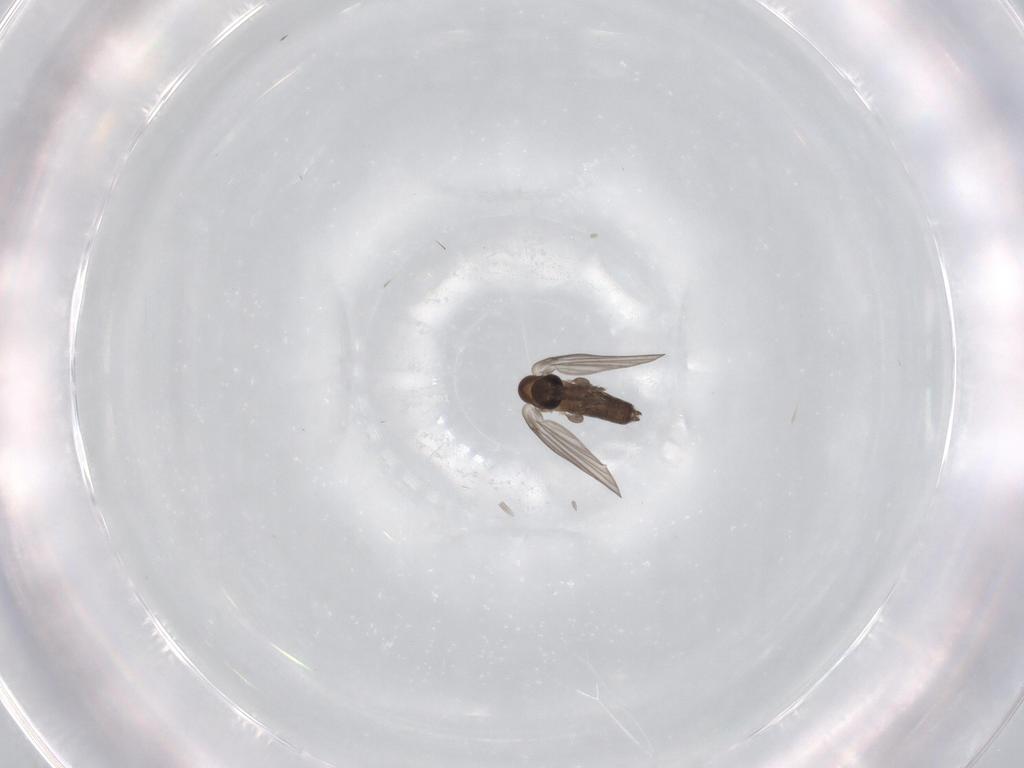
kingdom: Animalia
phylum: Arthropoda
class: Insecta
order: Diptera
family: Psychodidae
